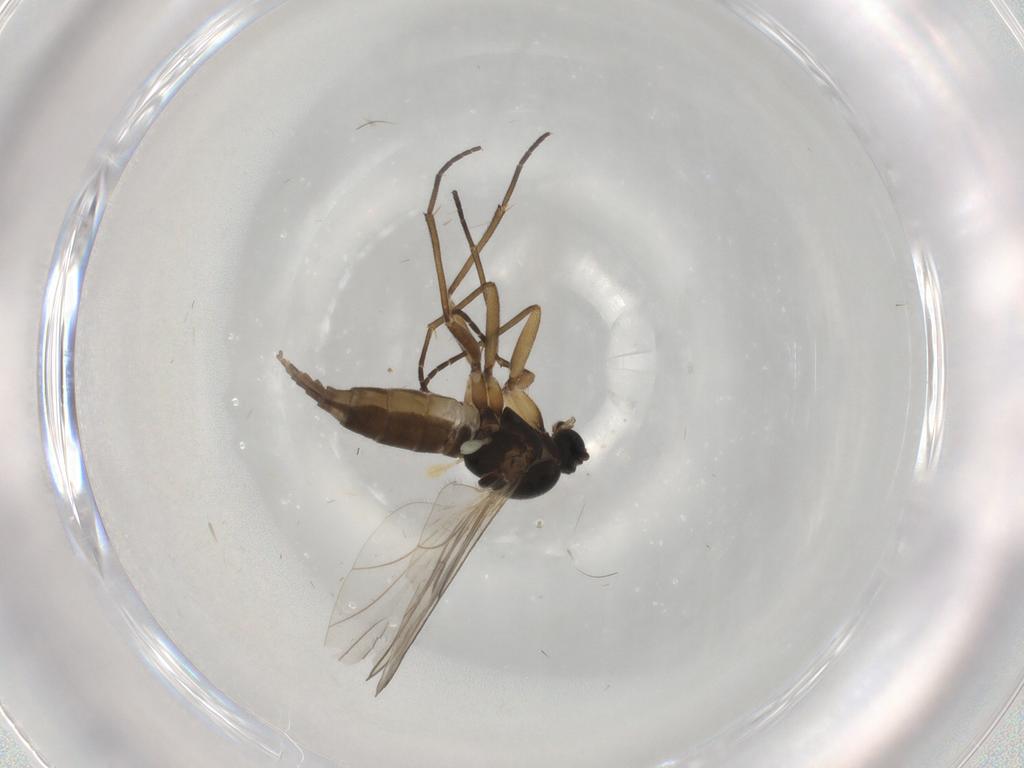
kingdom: Animalia
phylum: Arthropoda
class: Insecta
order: Diptera
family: Sciaridae
